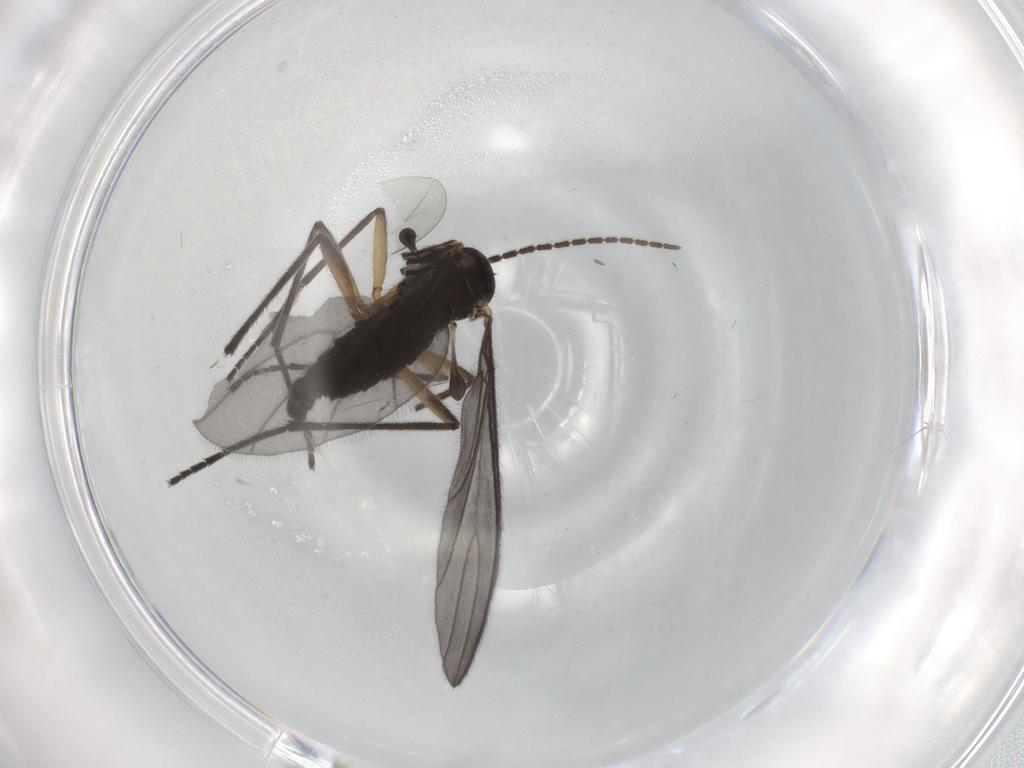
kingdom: Animalia
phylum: Arthropoda
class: Insecta
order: Diptera
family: Sciaridae
